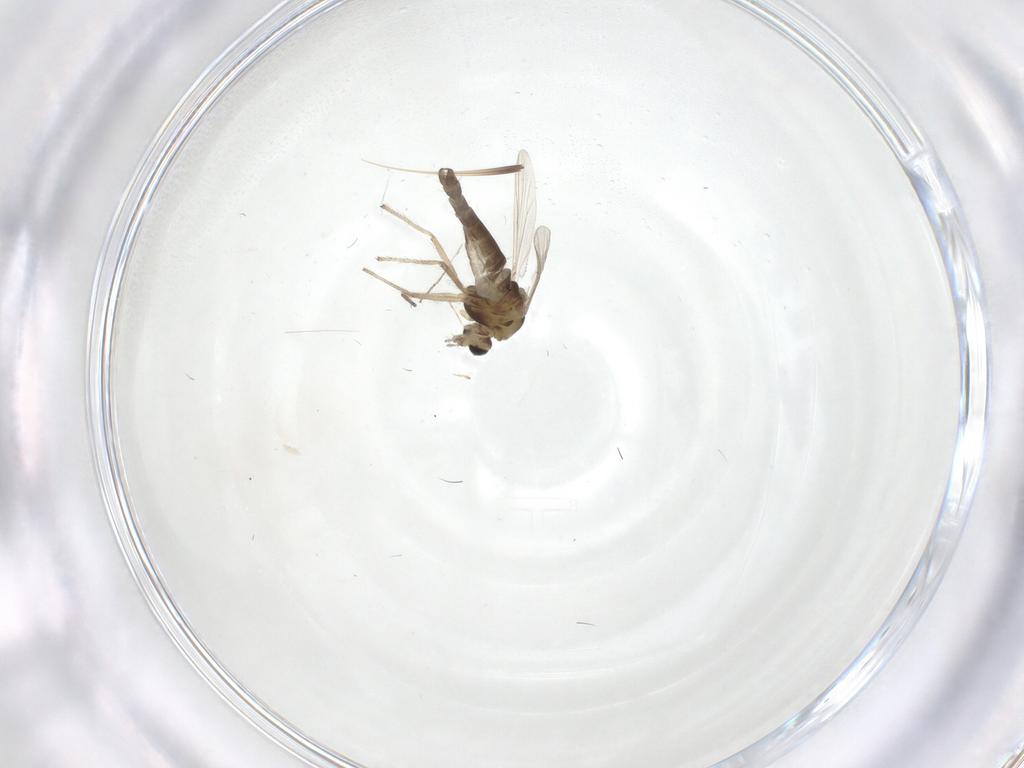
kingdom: Animalia
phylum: Arthropoda
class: Insecta
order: Diptera
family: Chironomidae
